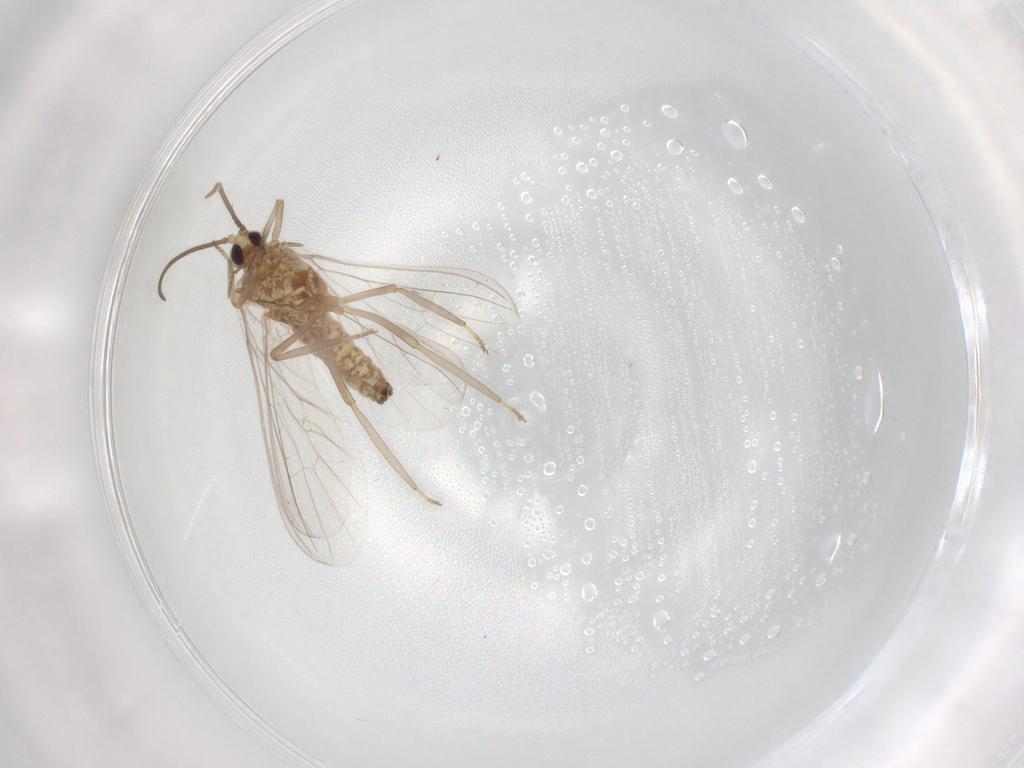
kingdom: Animalia
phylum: Arthropoda
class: Insecta
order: Neuroptera
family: Coniopterygidae
